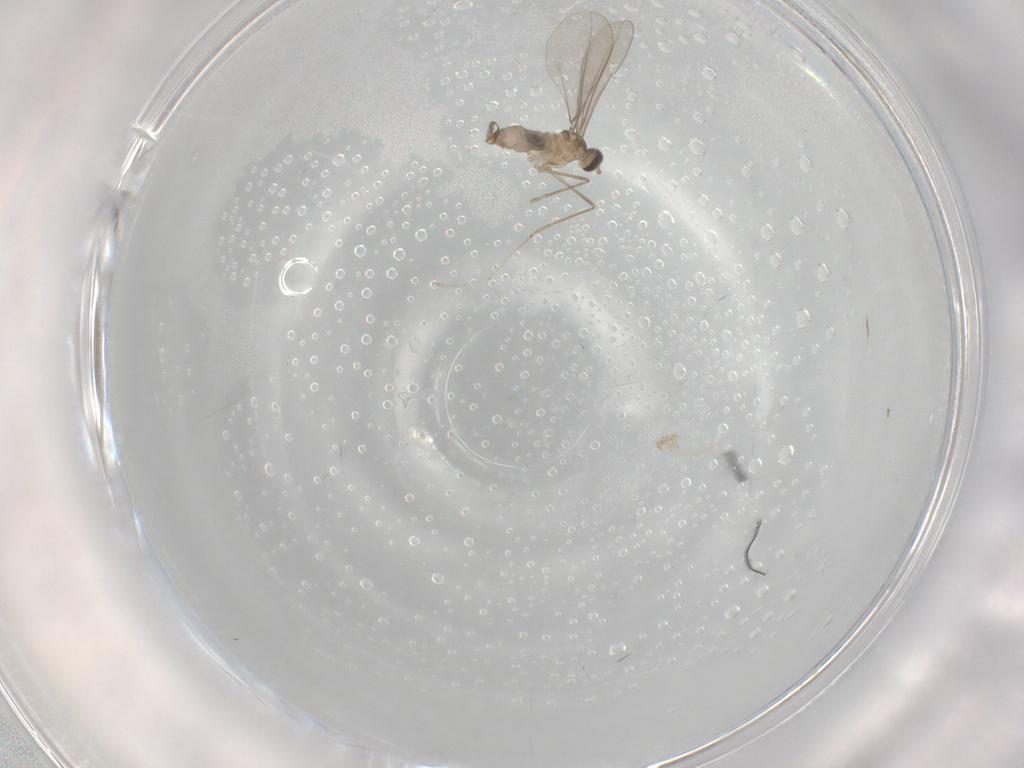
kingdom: Animalia
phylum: Arthropoda
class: Insecta
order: Diptera
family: Cecidomyiidae
